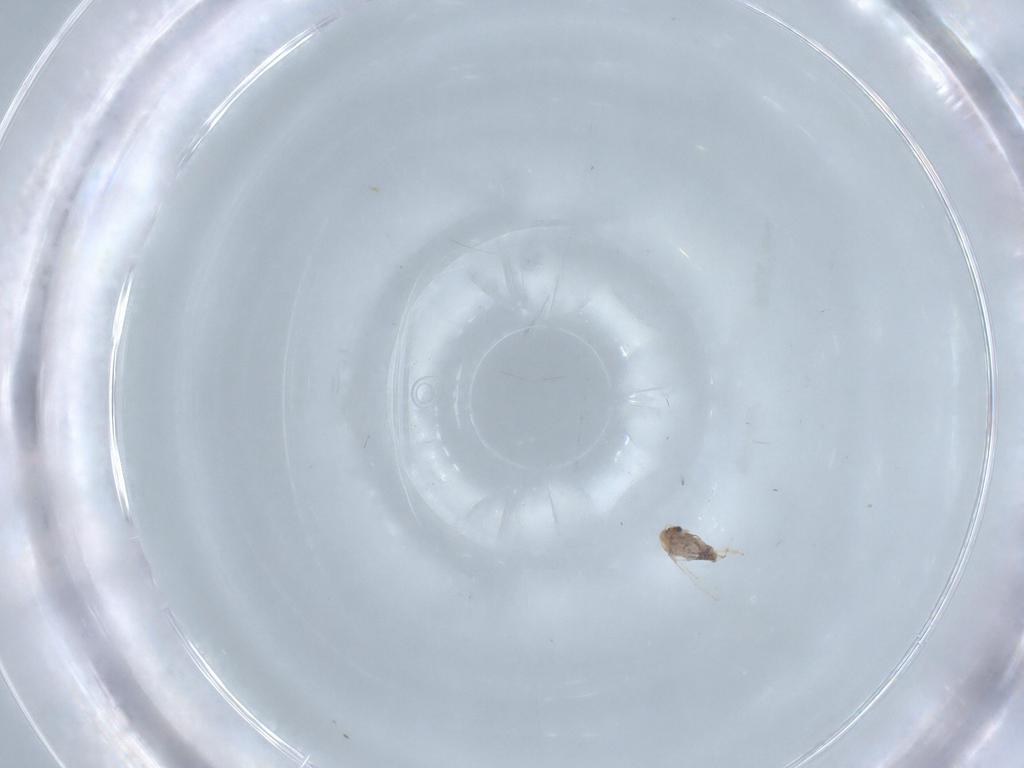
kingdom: Animalia
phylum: Arthropoda
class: Insecta
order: Diptera
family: Chironomidae
